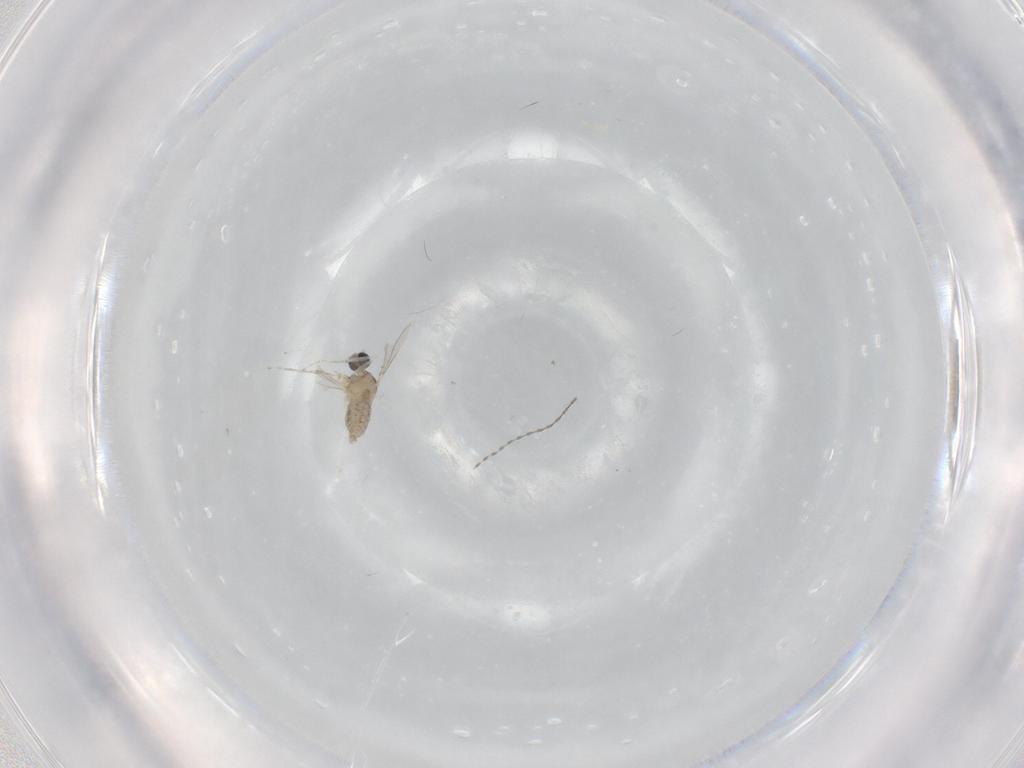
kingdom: Animalia
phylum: Arthropoda
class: Insecta
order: Diptera
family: Cecidomyiidae
